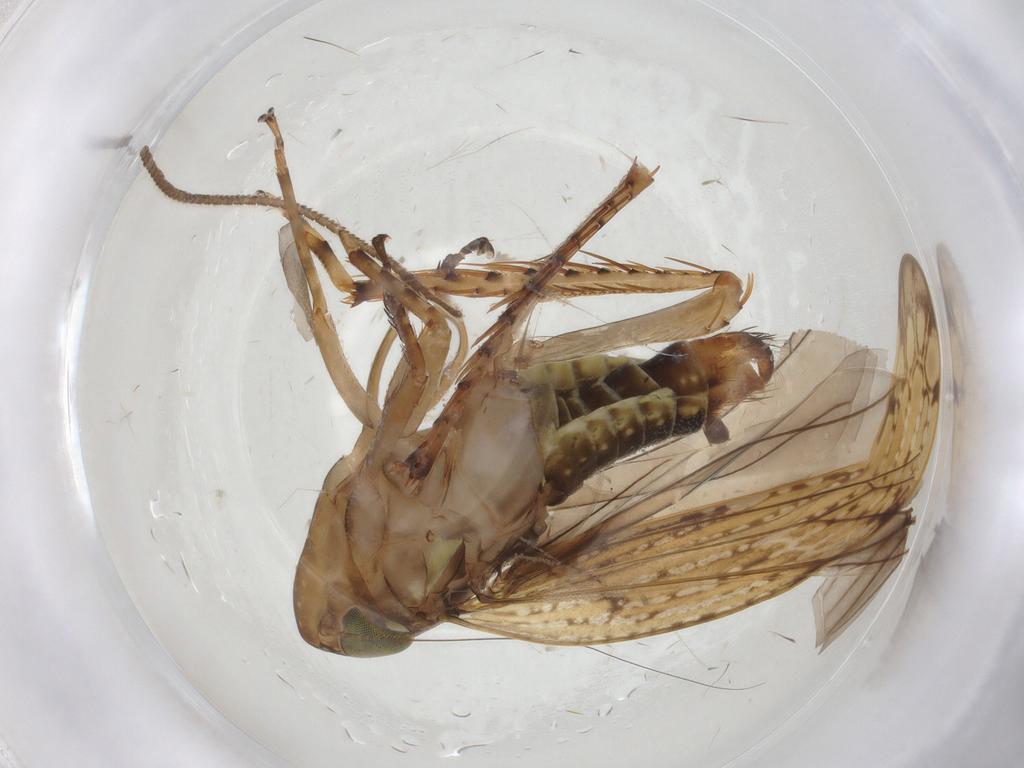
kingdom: Animalia
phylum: Arthropoda
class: Insecta
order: Hemiptera
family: Cicadellidae
